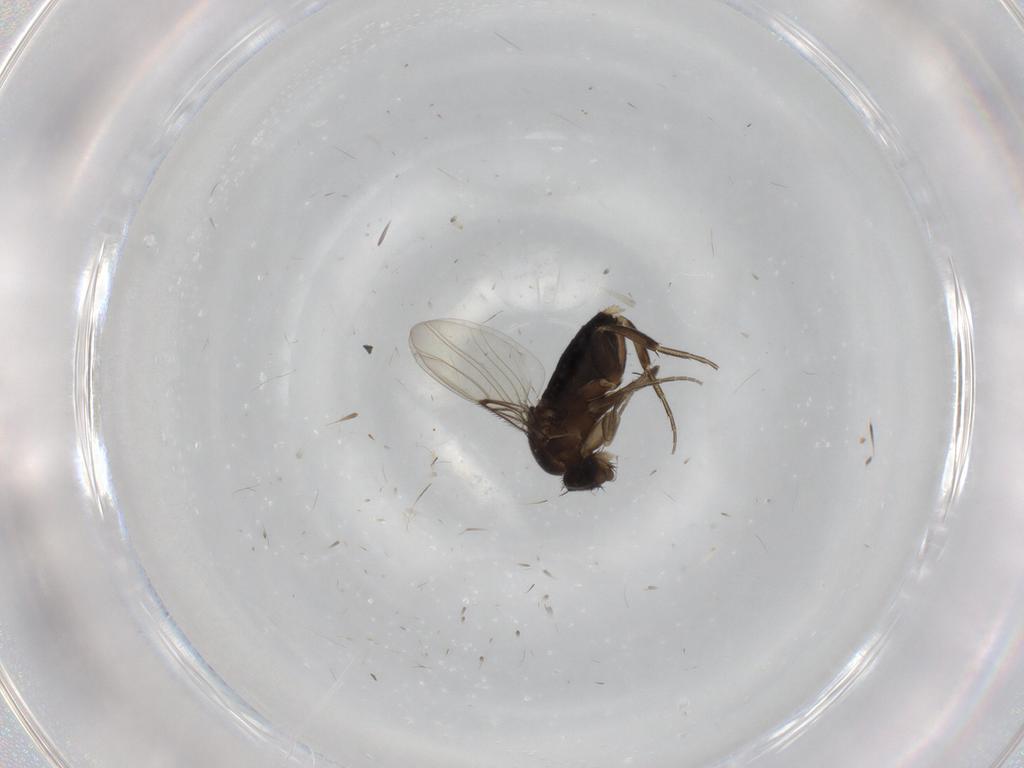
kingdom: Animalia
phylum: Arthropoda
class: Insecta
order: Diptera
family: Phoridae
